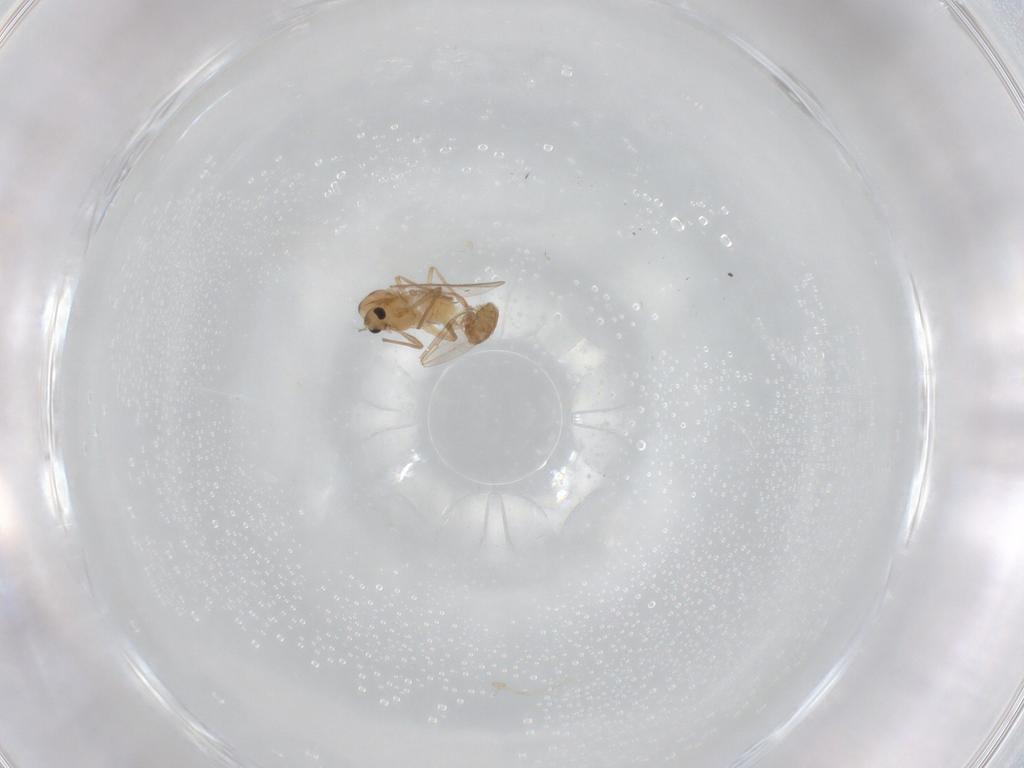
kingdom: Animalia
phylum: Arthropoda
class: Insecta
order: Diptera
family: Chironomidae
